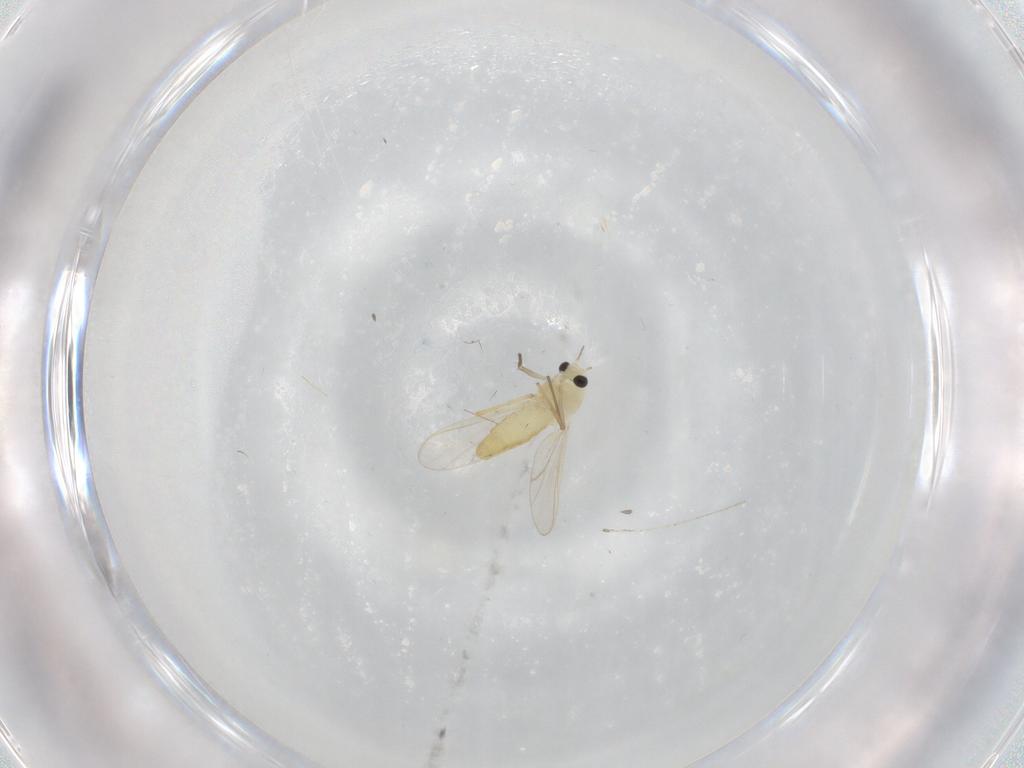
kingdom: Animalia
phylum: Arthropoda
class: Insecta
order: Diptera
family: Chironomidae
